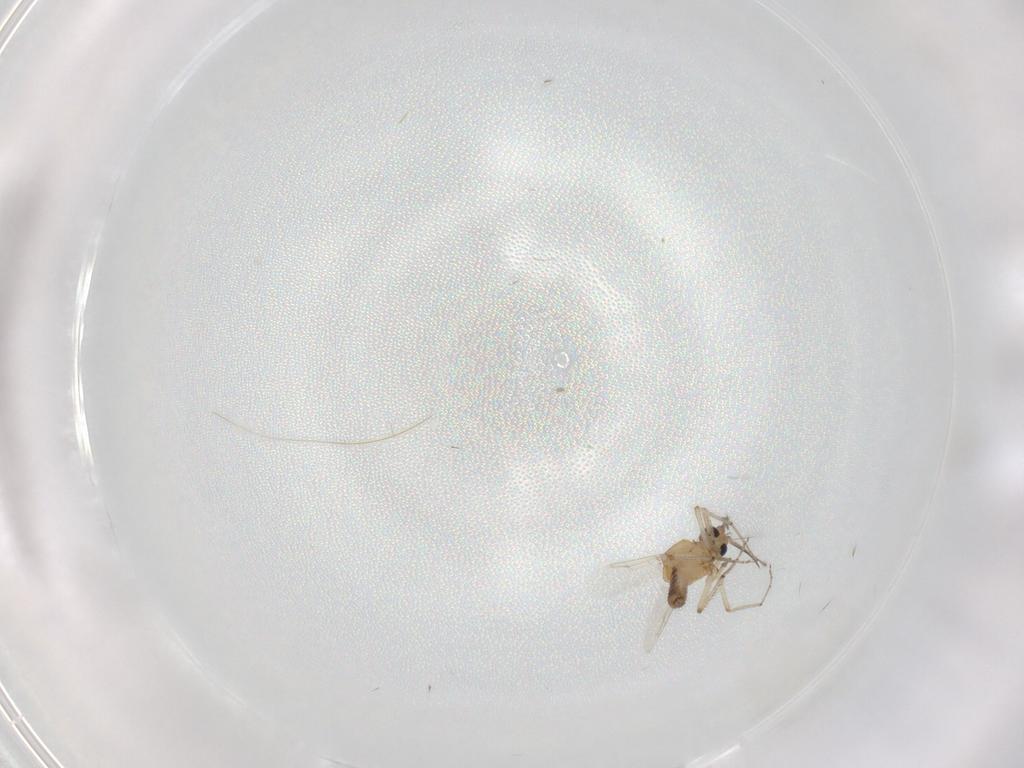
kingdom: Animalia
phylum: Arthropoda
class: Insecta
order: Diptera
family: Ceratopogonidae
